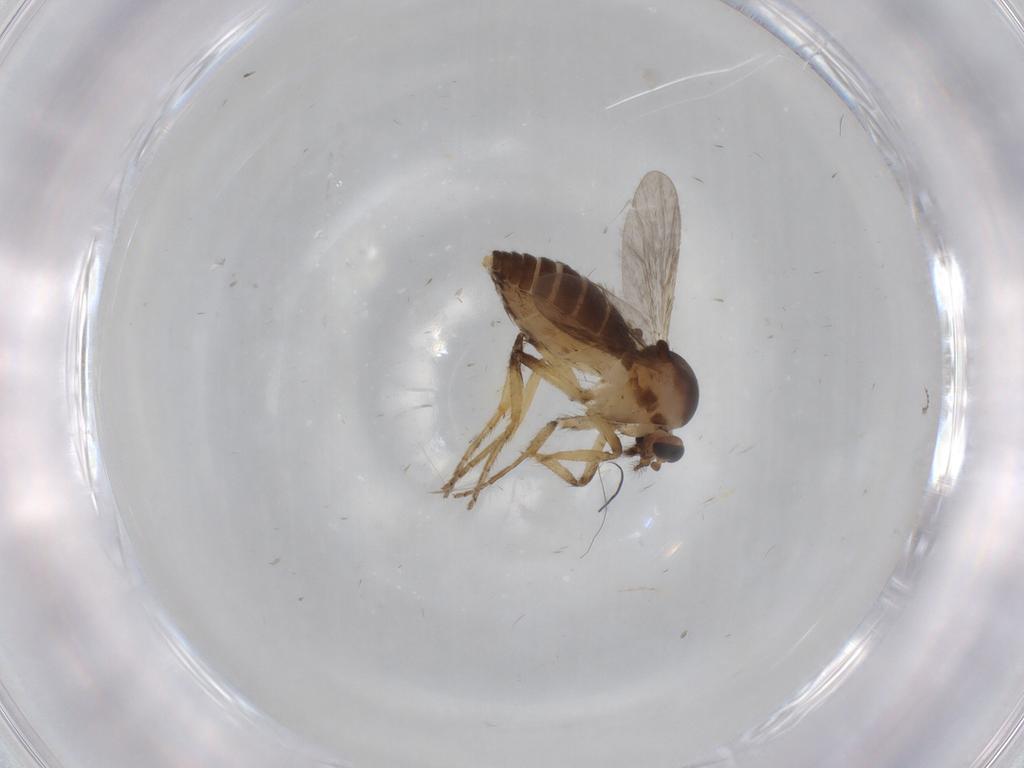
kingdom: Animalia
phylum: Arthropoda
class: Insecta
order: Diptera
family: Ceratopogonidae
